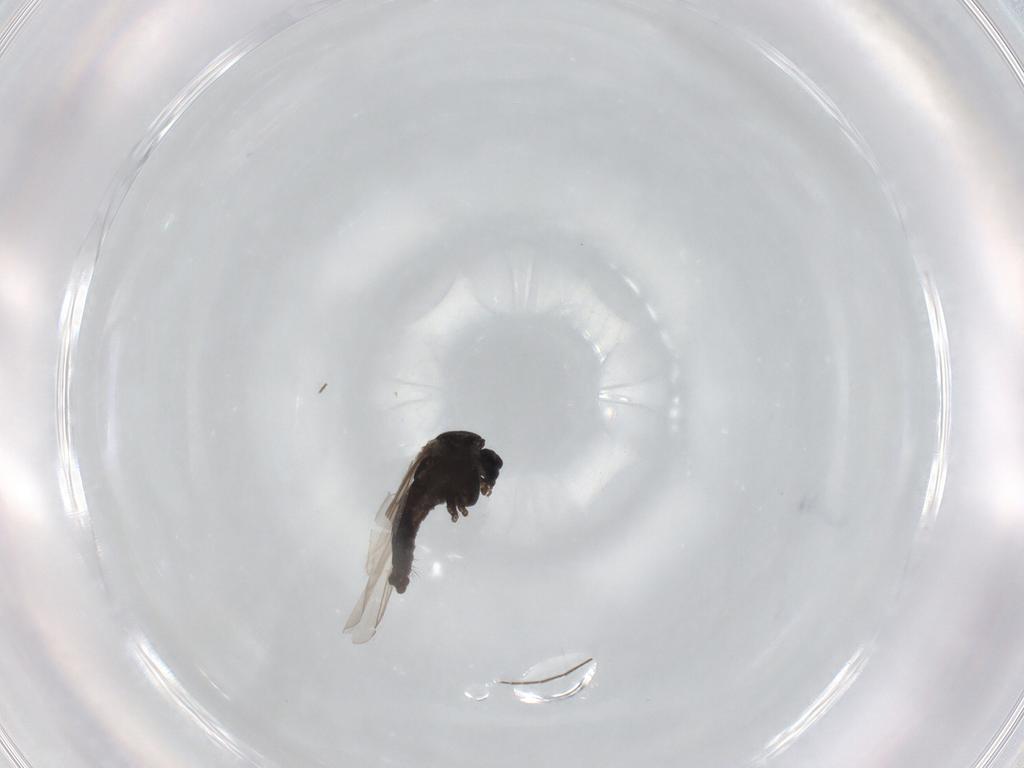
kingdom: Animalia
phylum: Arthropoda
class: Insecta
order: Diptera
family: Chironomidae
